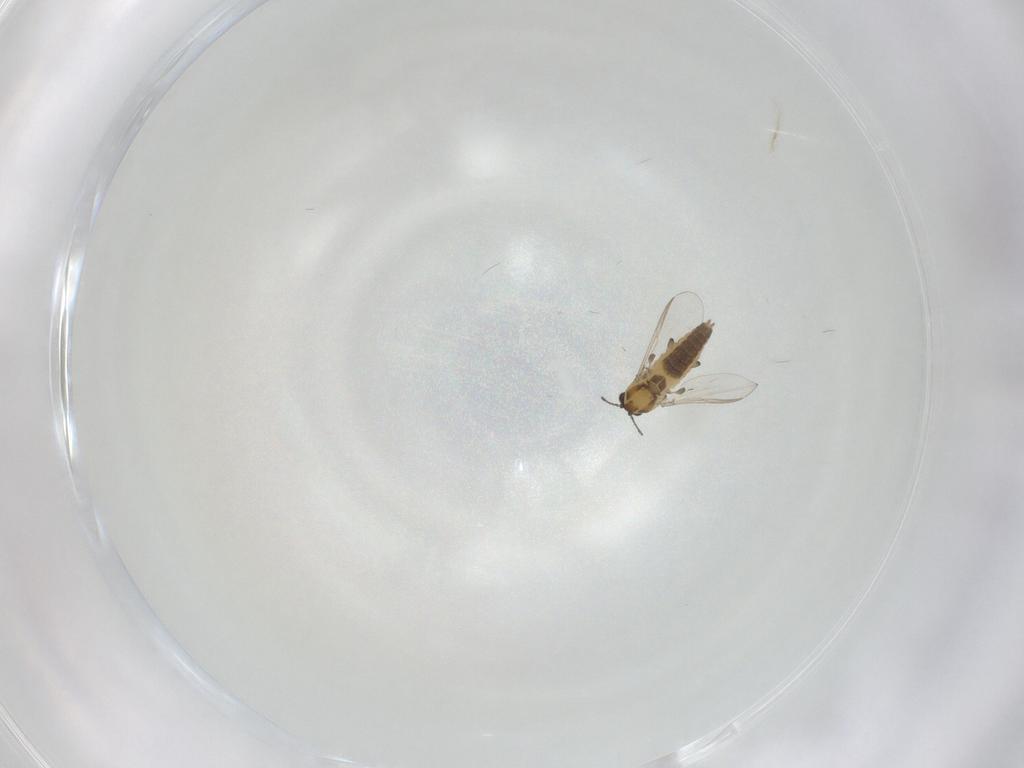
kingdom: Animalia
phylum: Arthropoda
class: Insecta
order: Diptera
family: Chironomidae
